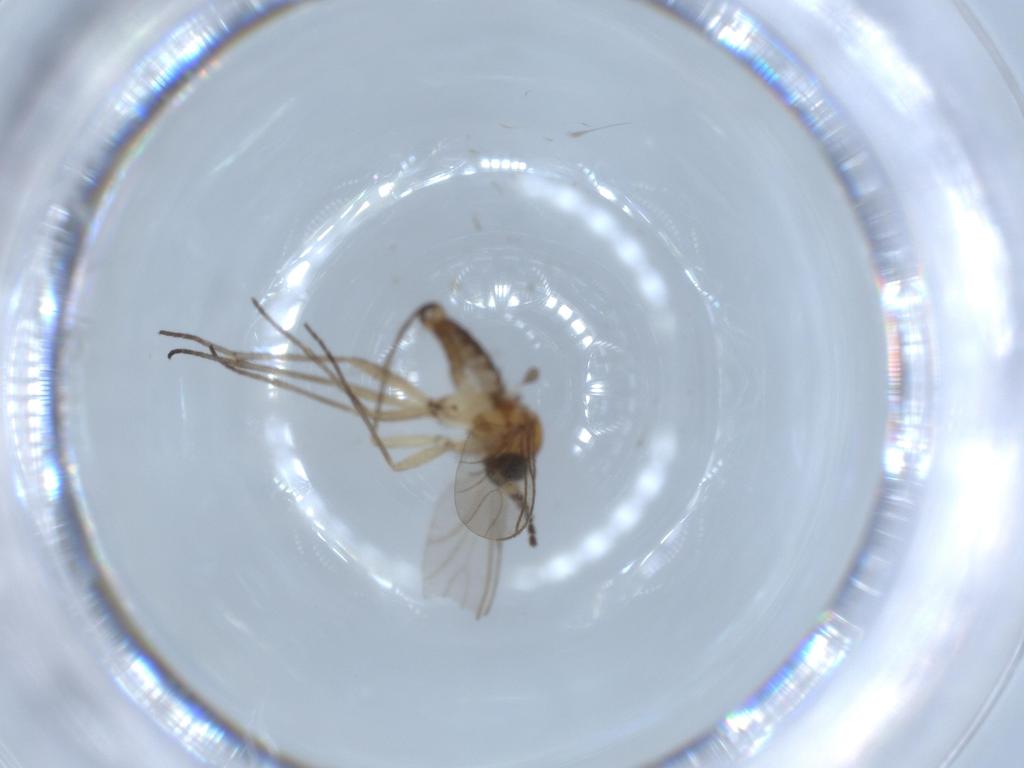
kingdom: Animalia
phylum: Arthropoda
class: Insecta
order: Diptera
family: Sciaridae
